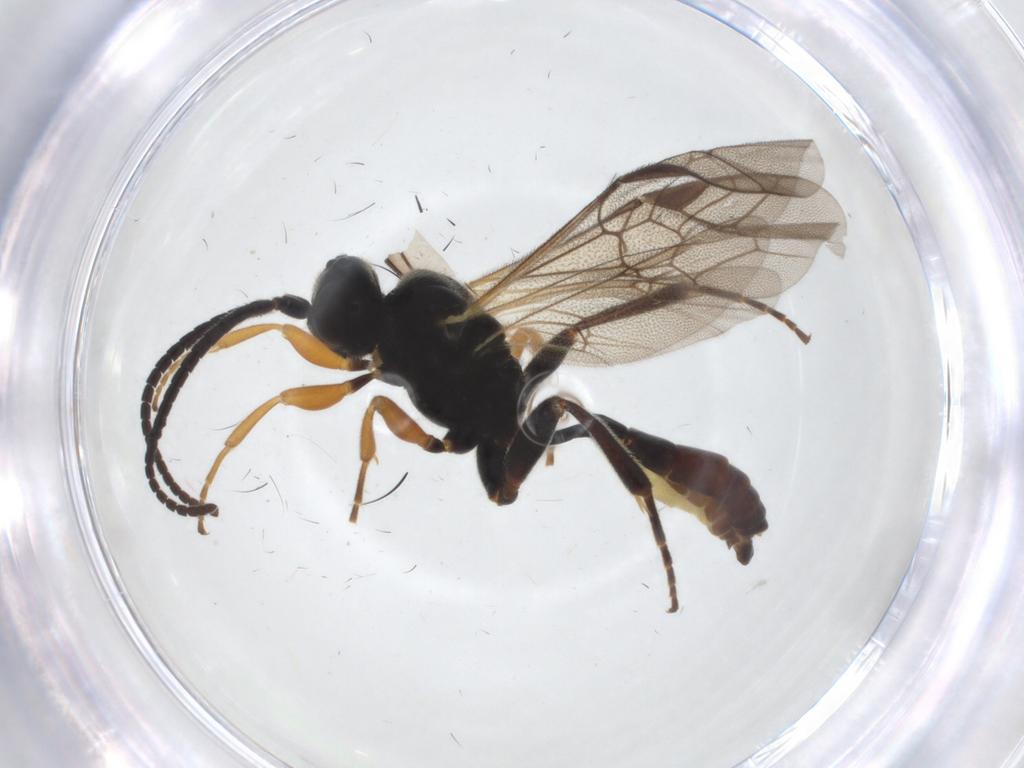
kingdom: Animalia
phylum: Arthropoda
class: Insecta
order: Hymenoptera
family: Ichneumonidae
